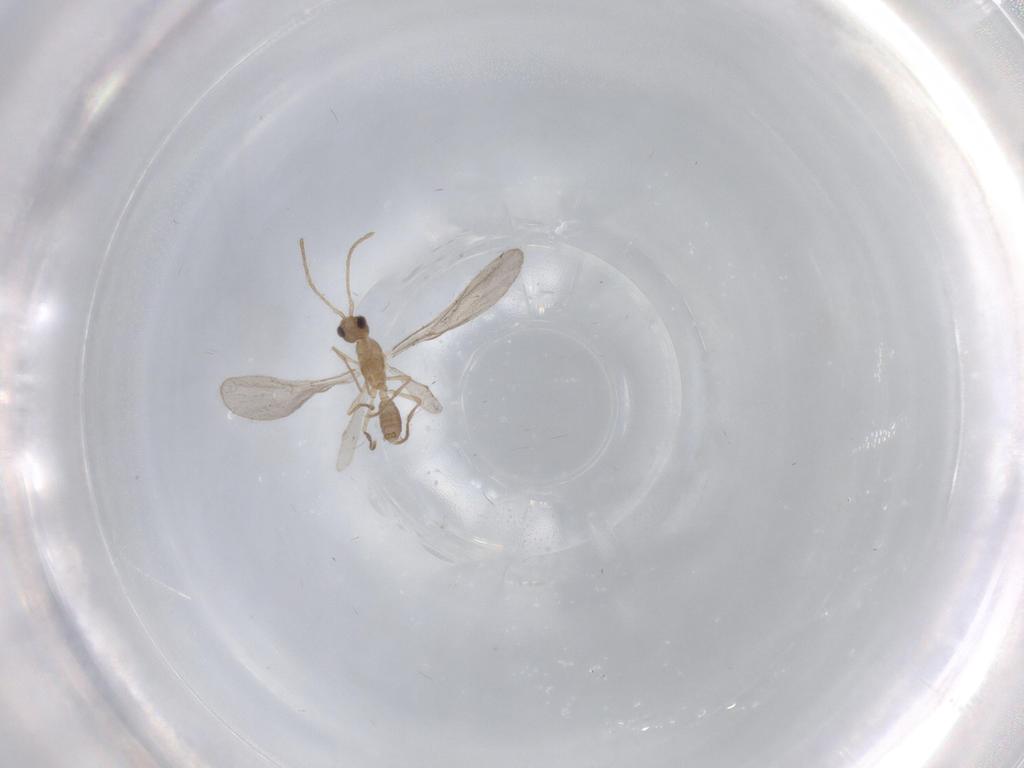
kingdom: Animalia
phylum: Arthropoda
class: Insecta
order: Hymenoptera
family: Formicidae
